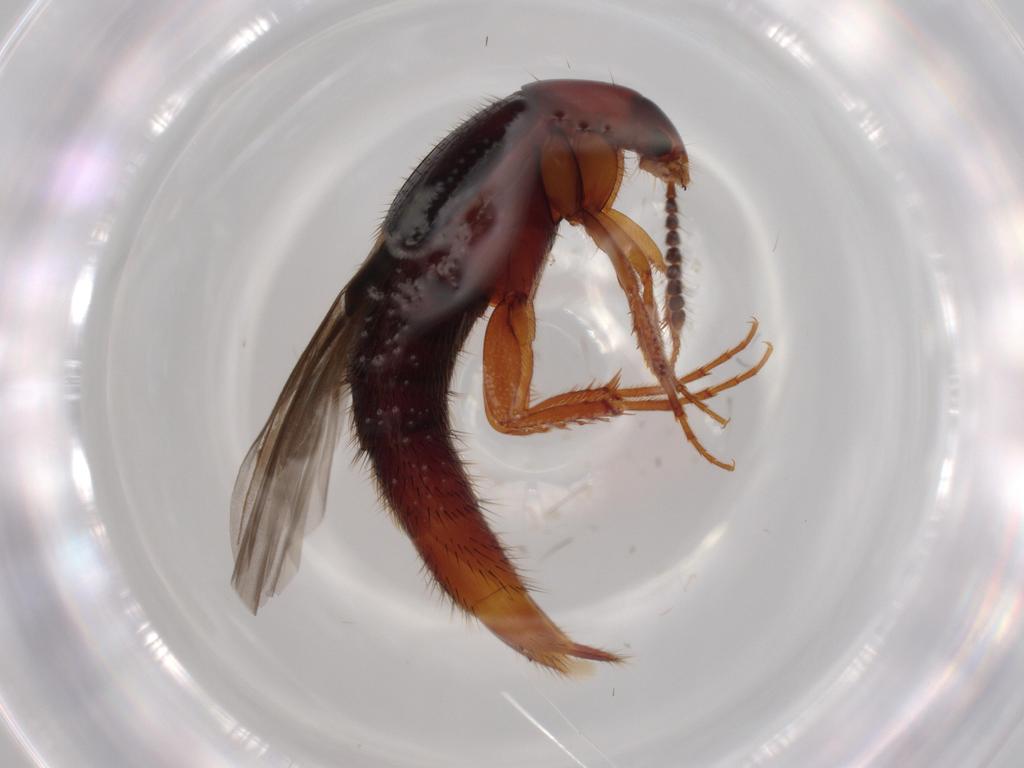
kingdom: Animalia
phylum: Arthropoda
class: Insecta
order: Coleoptera
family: Staphylinidae
